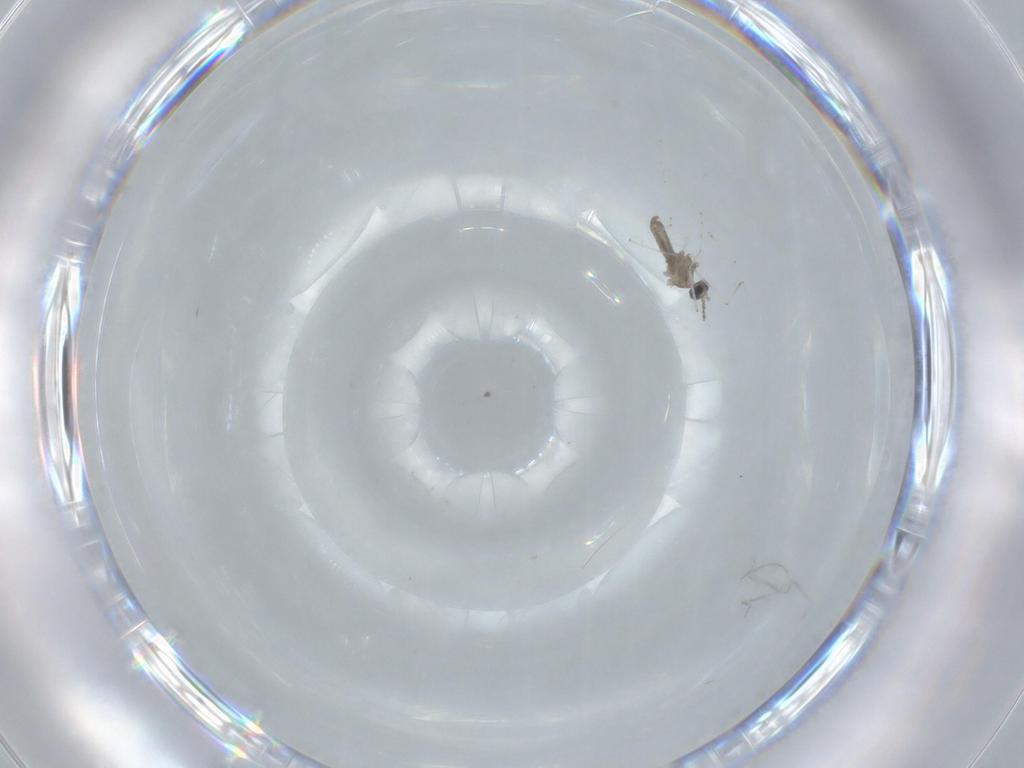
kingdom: Animalia
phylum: Arthropoda
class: Insecta
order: Diptera
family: Cecidomyiidae
